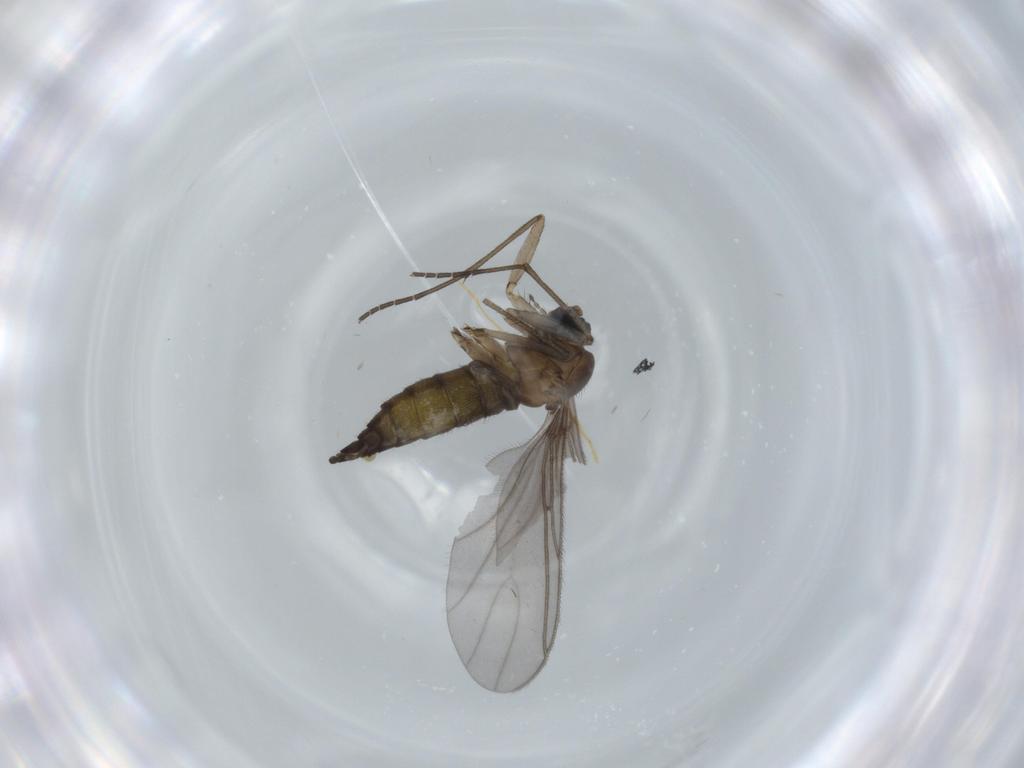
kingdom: Animalia
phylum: Arthropoda
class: Insecta
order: Diptera
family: Sciaridae
